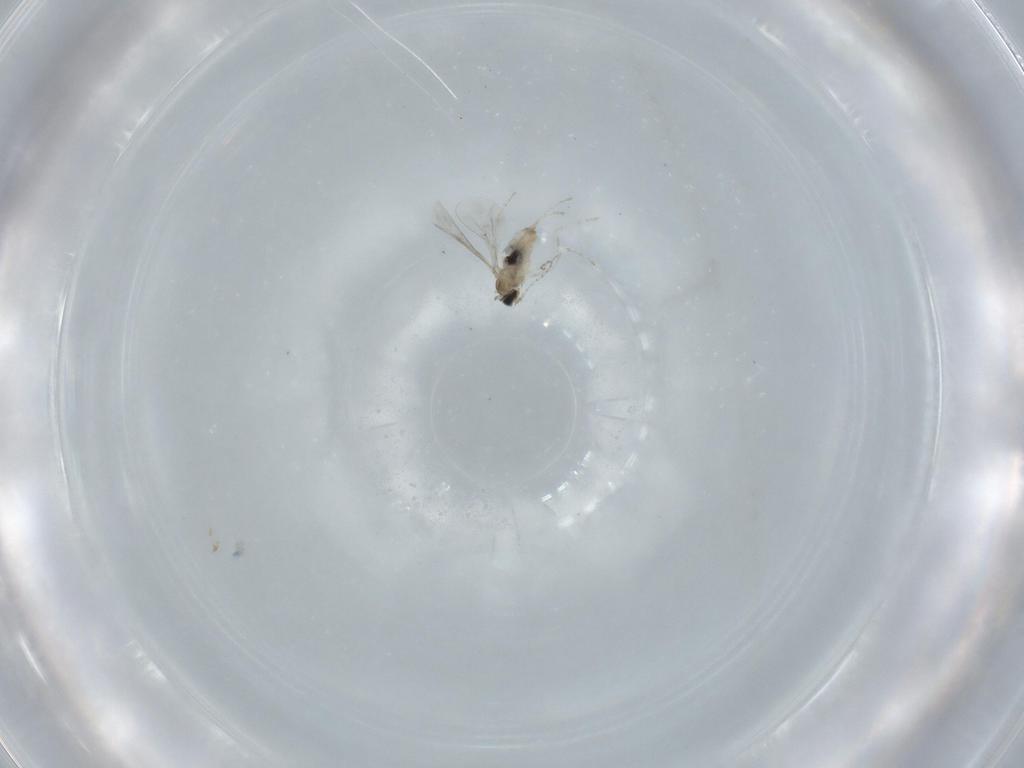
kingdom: Animalia
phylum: Arthropoda
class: Insecta
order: Diptera
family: Cecidomyiidae
